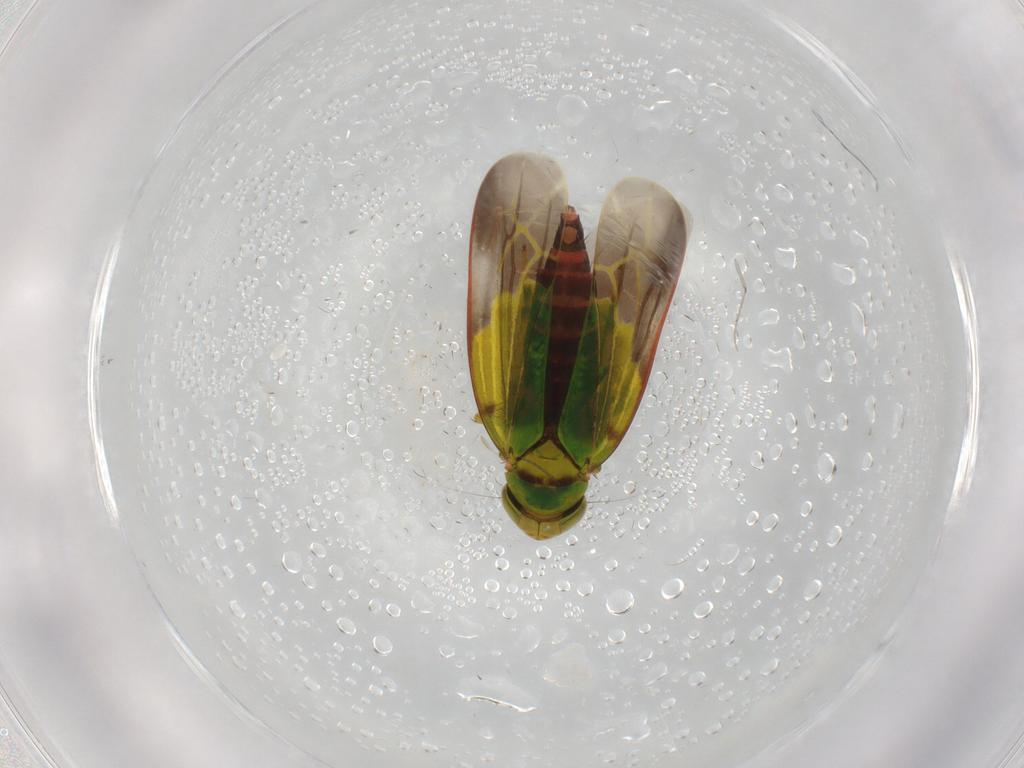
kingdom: Animalia
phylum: Arthropoda
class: Insecta
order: Hemiptera
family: Cicadellidae
